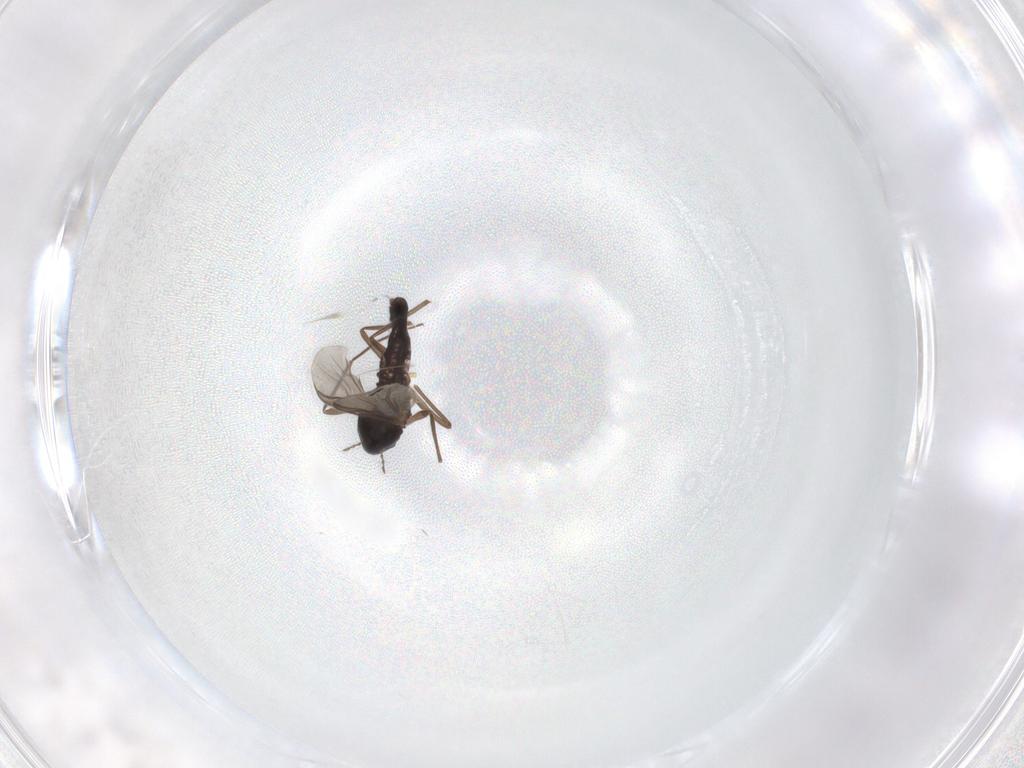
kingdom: Animalia
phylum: Arthropoda
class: Insecta
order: Diptera
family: Chironomidae
